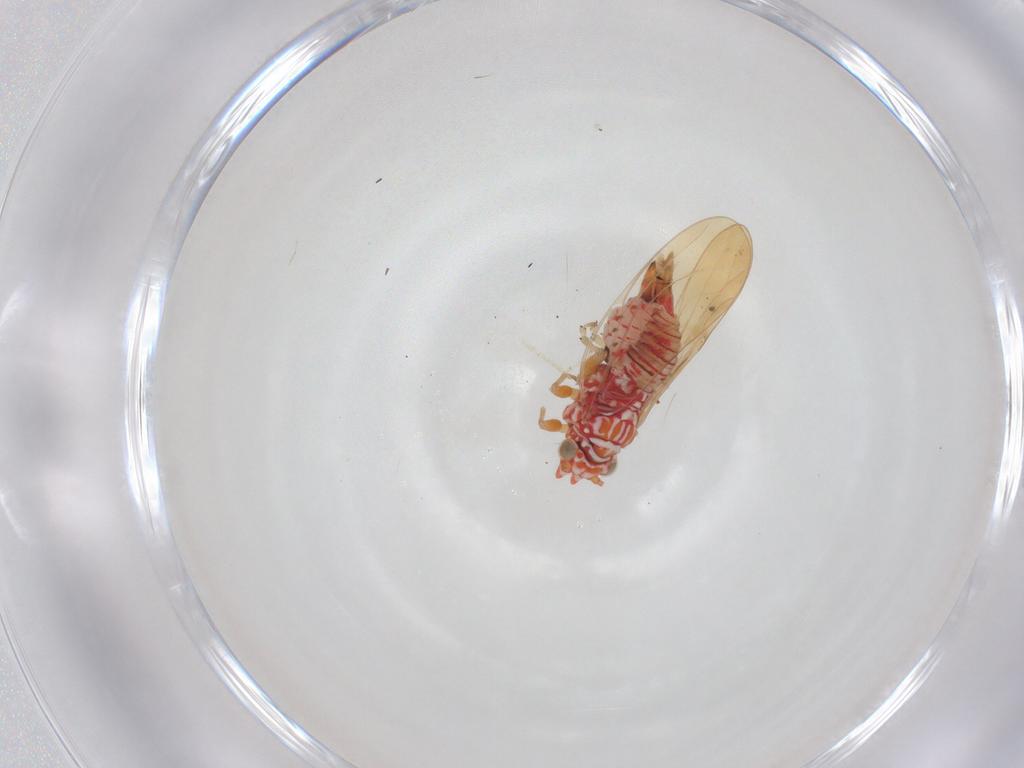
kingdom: Animalia
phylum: Arthropoda
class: Insecta
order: Hemiptera
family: Psyllidae
